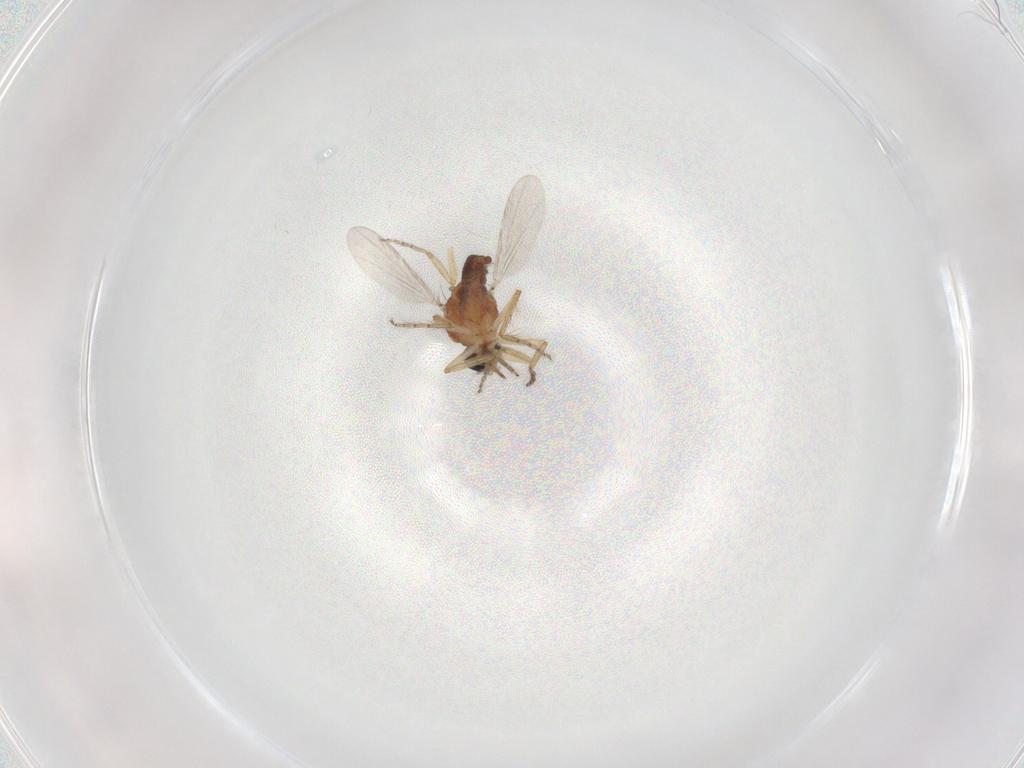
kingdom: Animalia
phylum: Arthropoda
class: Insecta
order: Diptera
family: Ceratopogonidae
